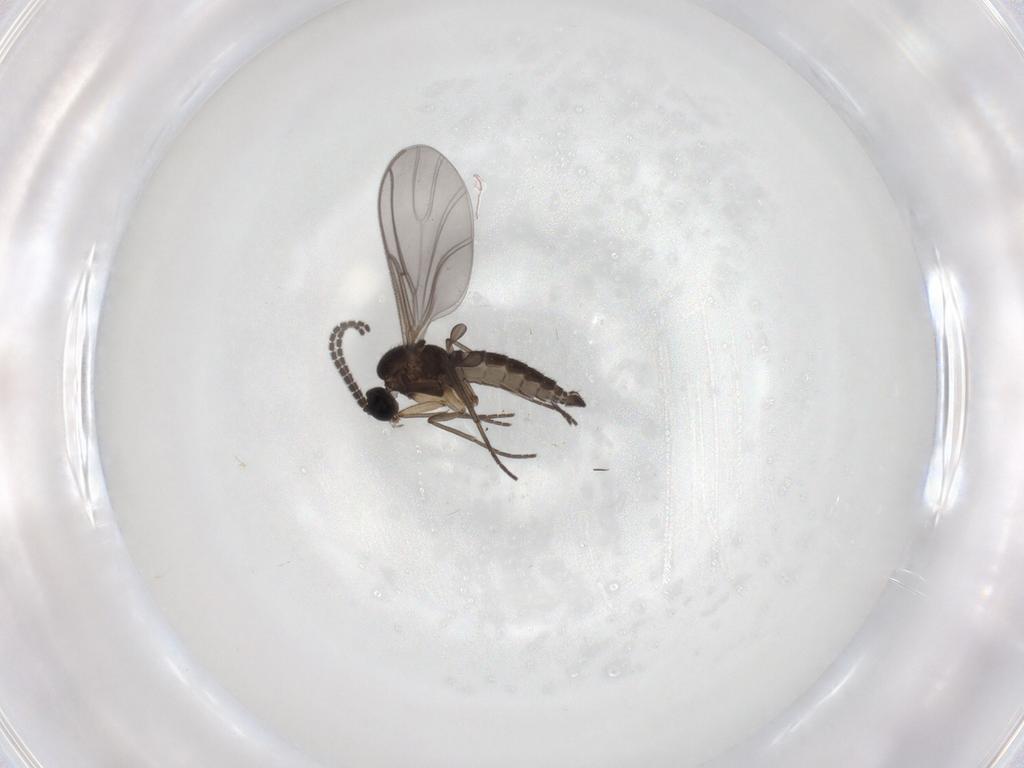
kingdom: Animalia
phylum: Arthropoda
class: Insecta
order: Diptera
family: Sciaridae
